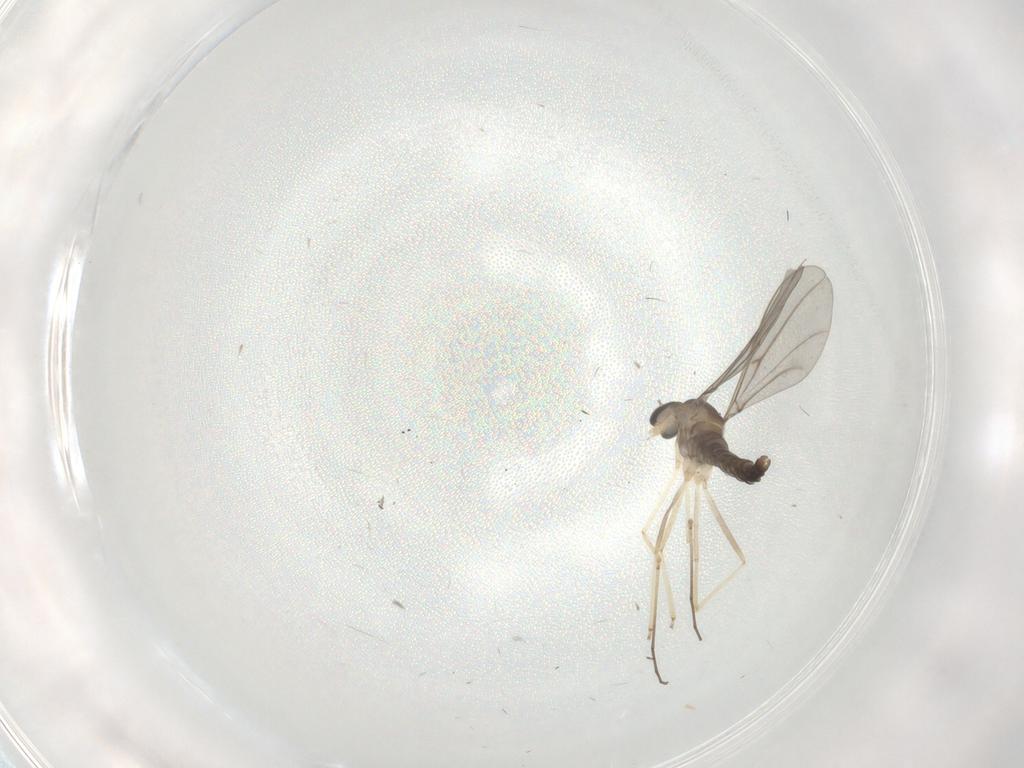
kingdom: Animalia
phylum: Arthropoda
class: Insecta
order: Diptera
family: Cecidomyiidae
